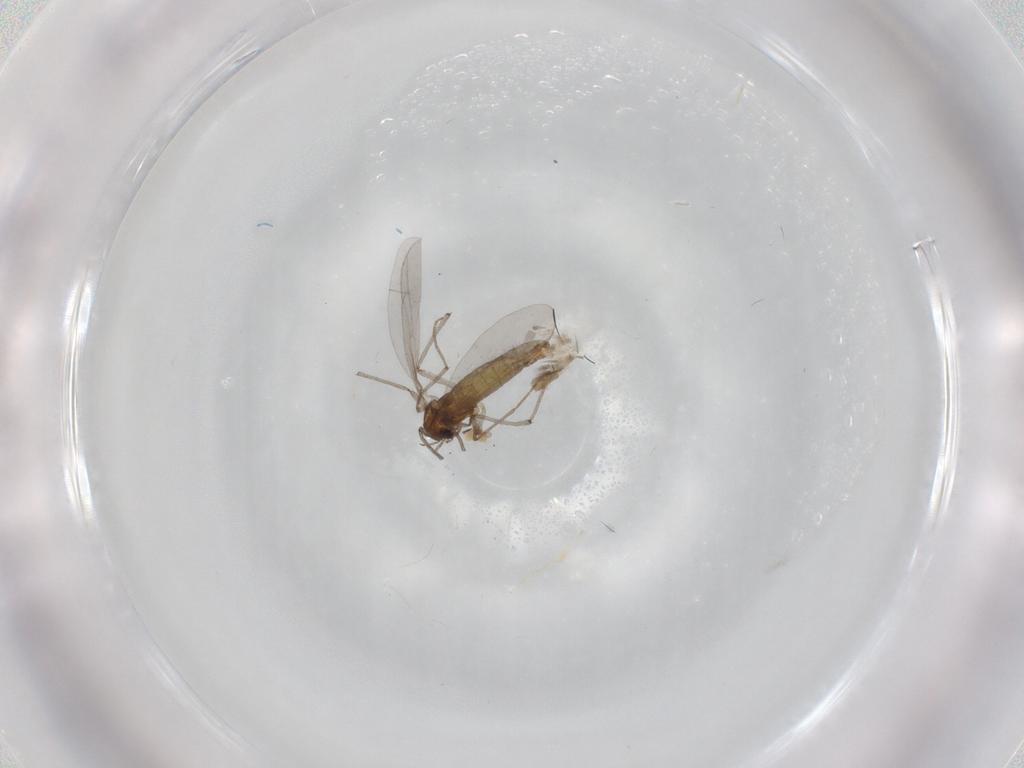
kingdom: Animalia
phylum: Arthropoda
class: Insecta
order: Diptera
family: Chironomidae
